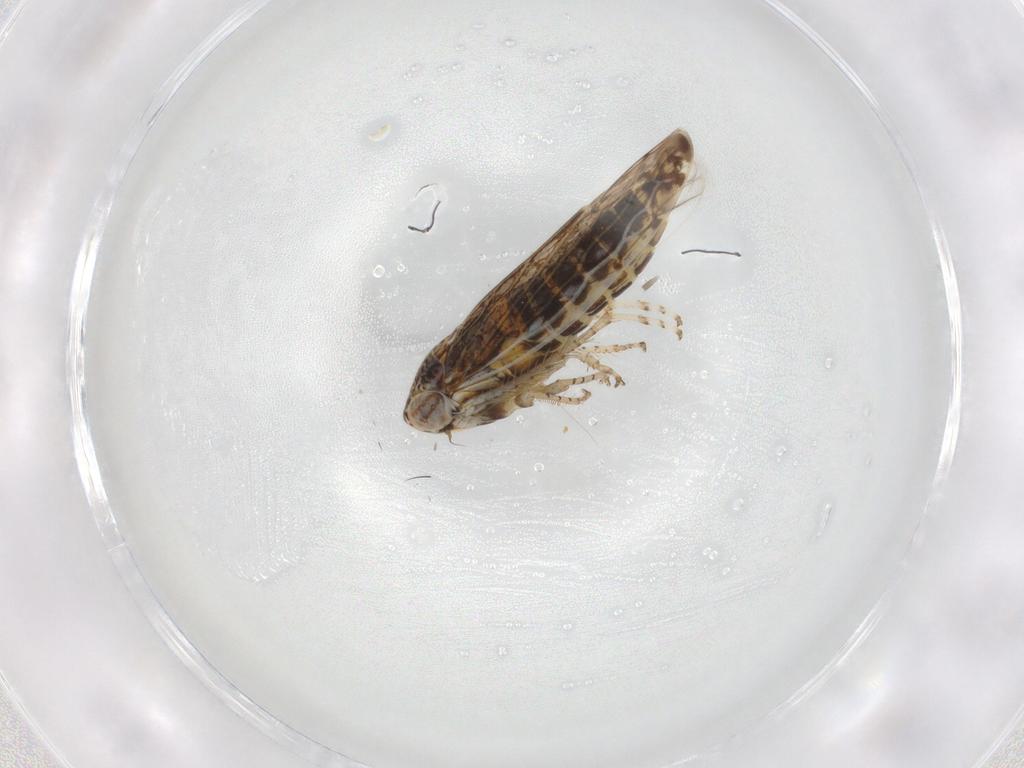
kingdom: Animalia
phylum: Arthropoda
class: Insecta
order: Hemiptera
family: Cicadellidae
